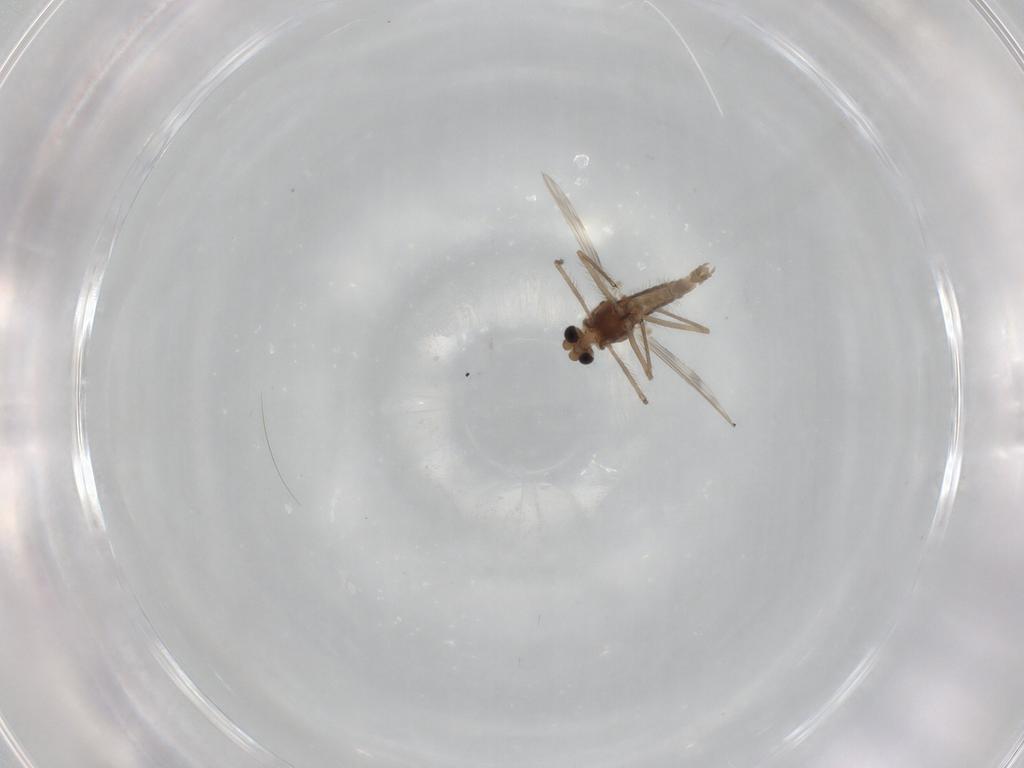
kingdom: Animalia
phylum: Arthropoda
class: Insecta
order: Diptera
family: Chironomidae
